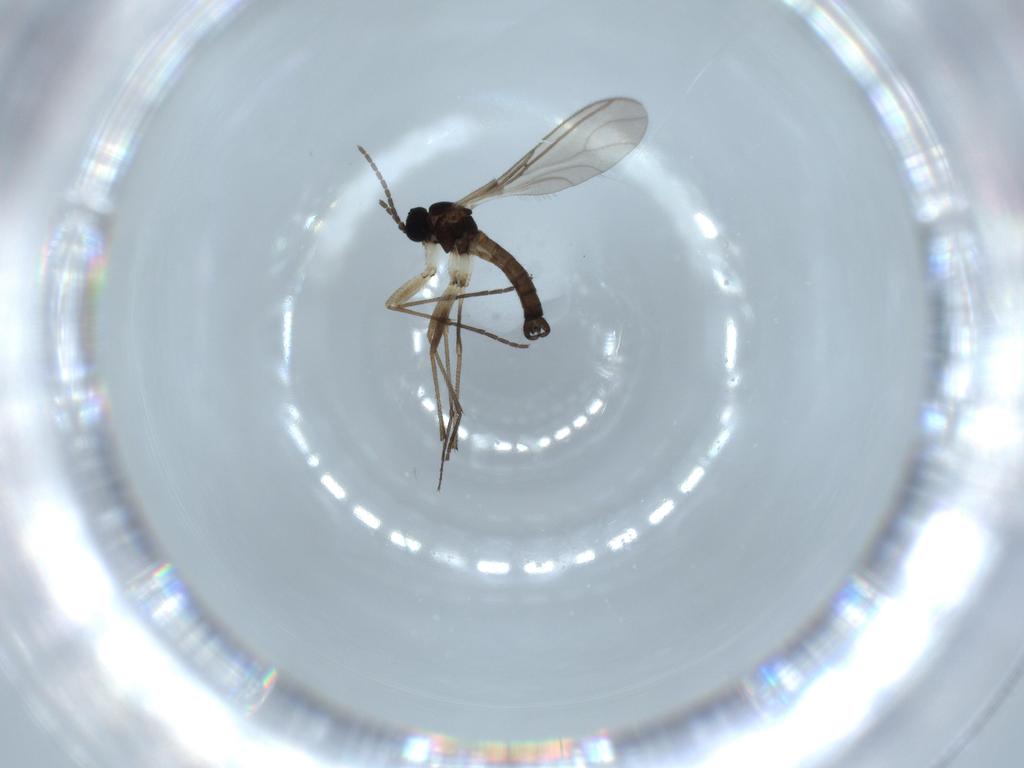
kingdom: Animalia
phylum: Arthropoda
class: Insecta
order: Diptera
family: Sciaridae
